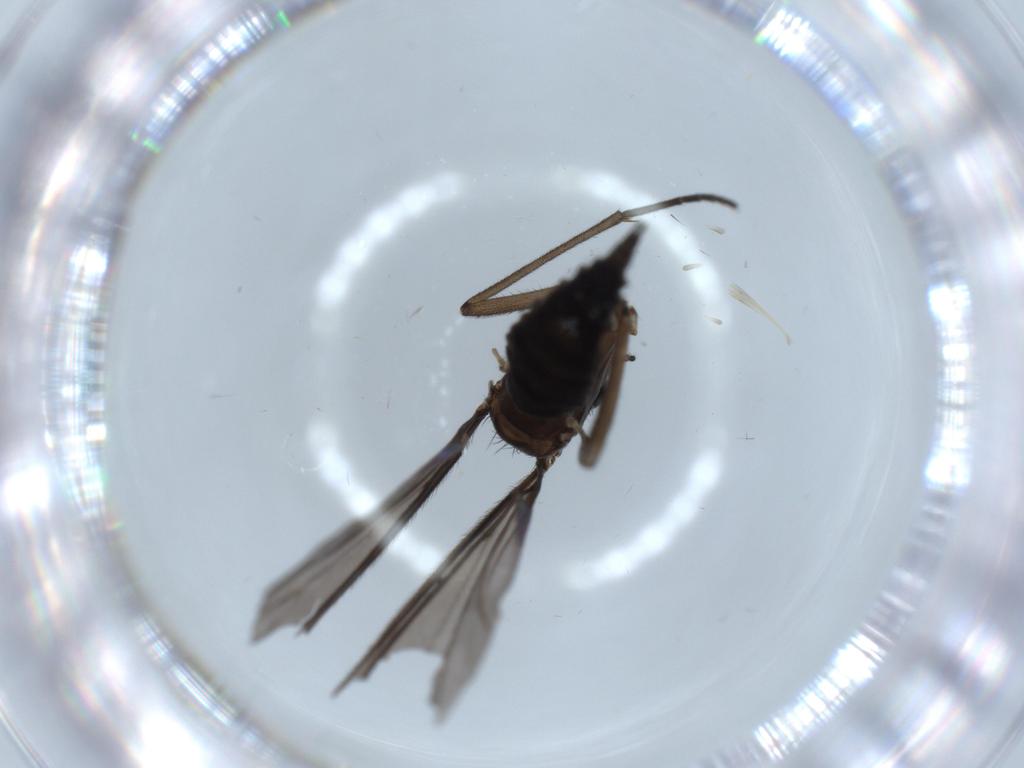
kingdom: Animalia
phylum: Arthropoda
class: Insecta
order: Diptera
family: Sciaridae
